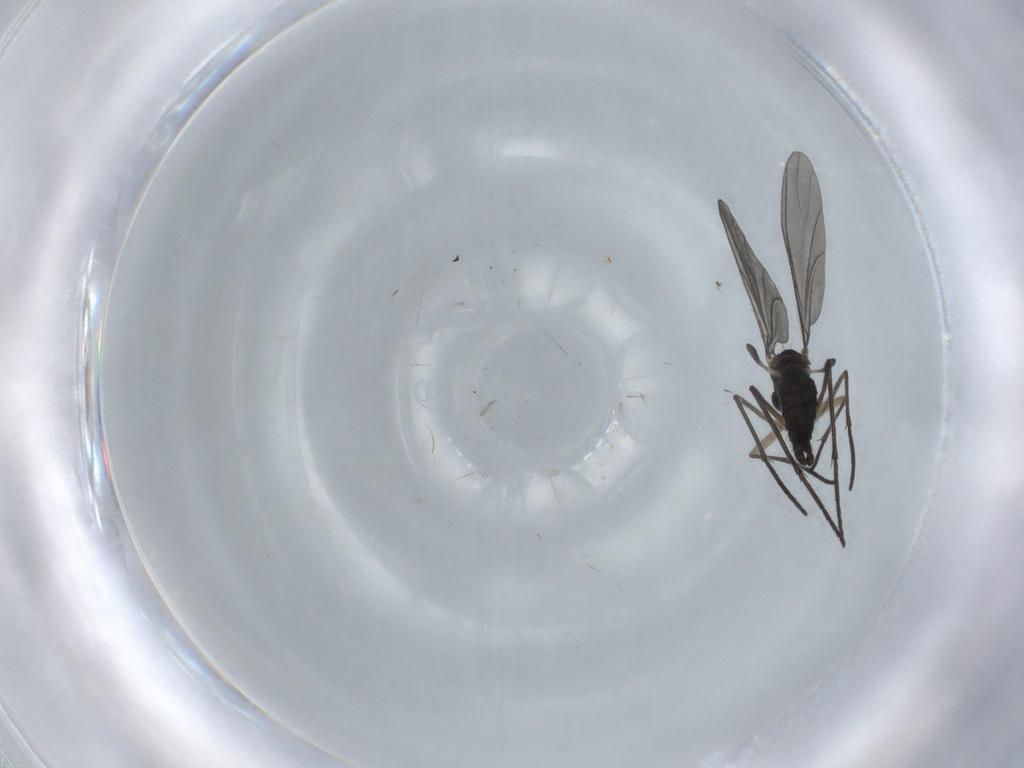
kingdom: Animalia
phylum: Arthropoda
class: Insecta
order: Diptera
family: Sciaridae
